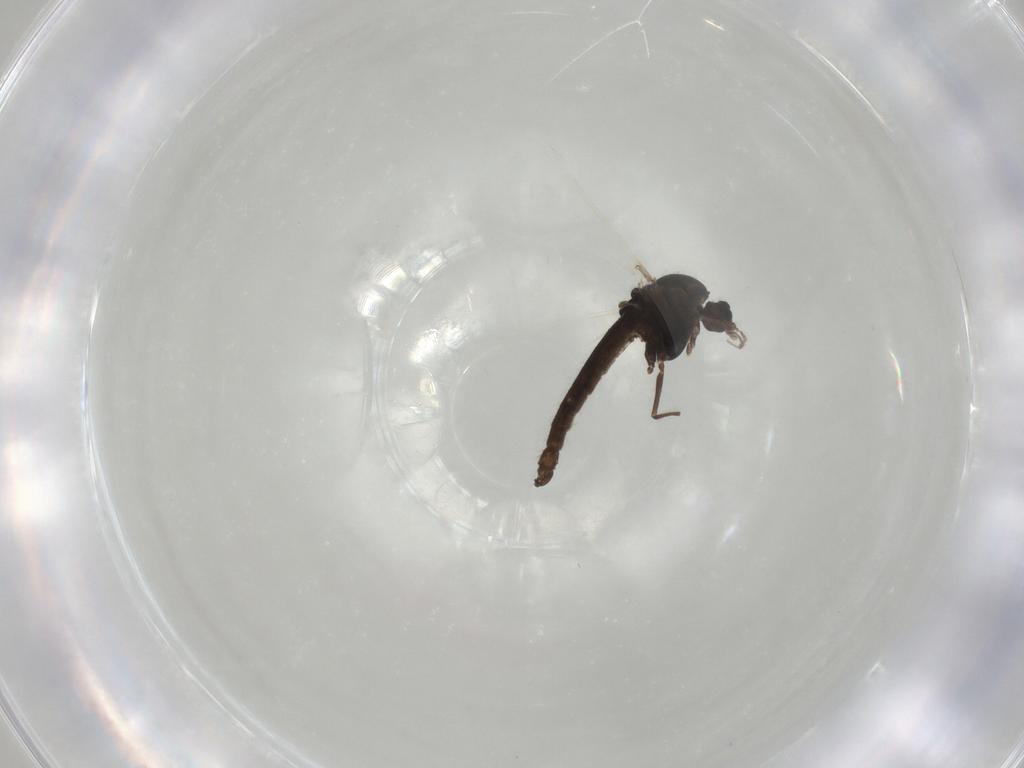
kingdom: Animalia
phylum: Arthropoda
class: Insecta
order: Diptera
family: Chironomidae
